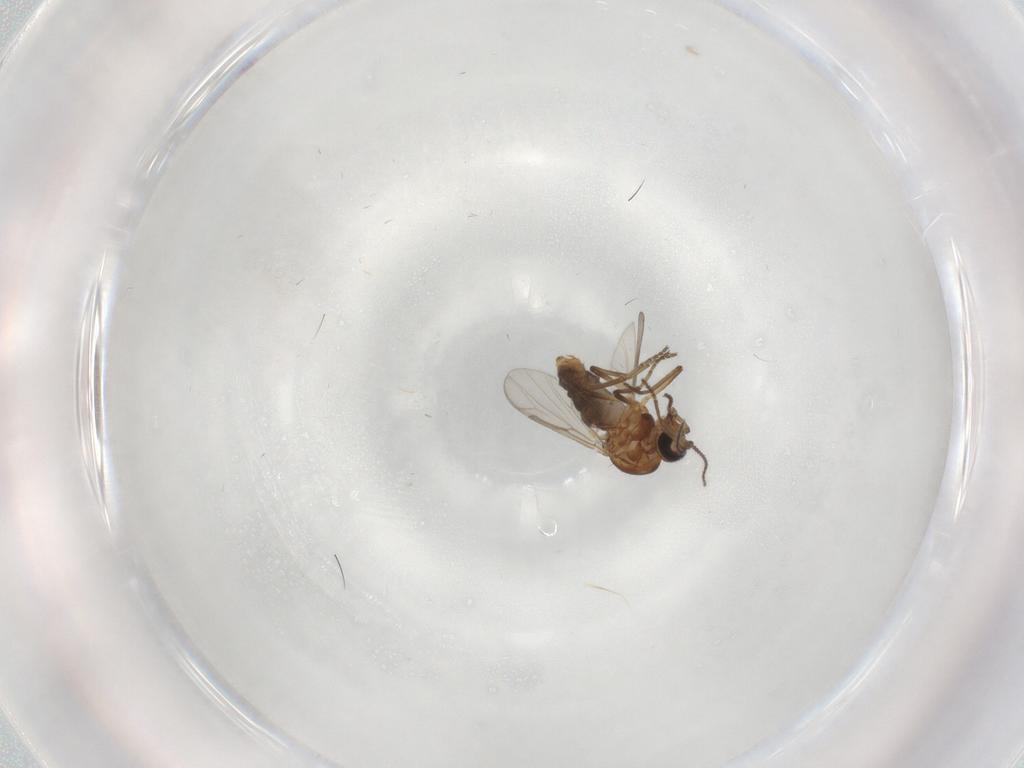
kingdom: Animalia
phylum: Arthropoda
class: Insecta
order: Diptera
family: Ceratopogonidae
